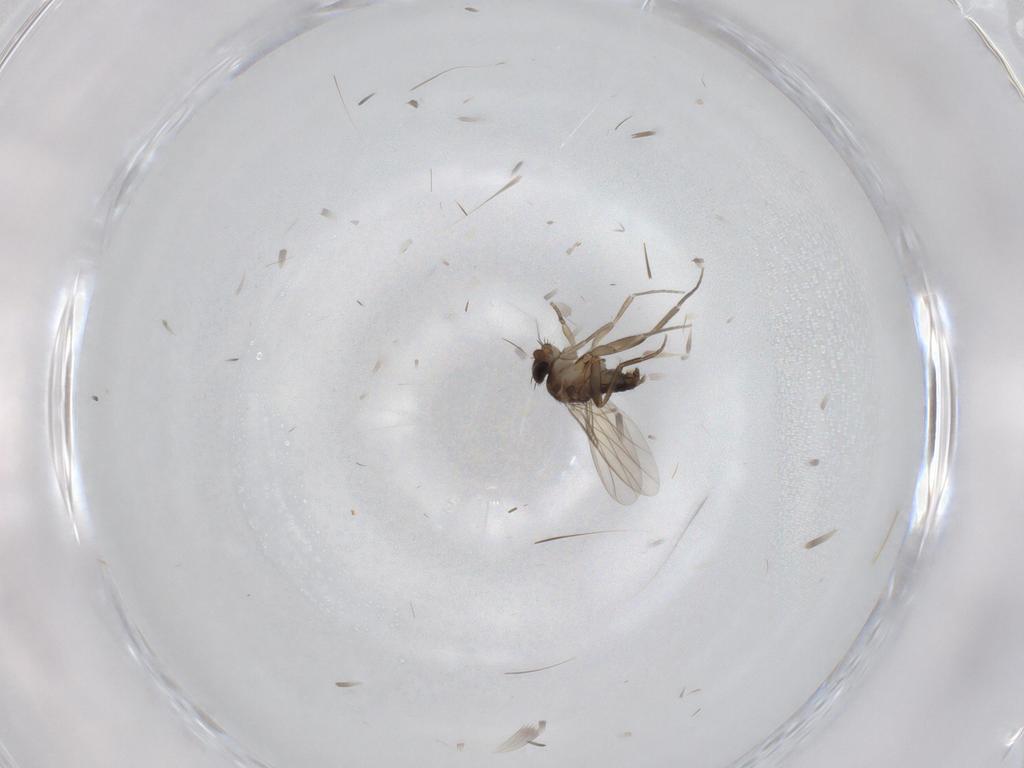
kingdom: Animalia
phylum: Arthropoda
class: Insecta
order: Diptera
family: Phoridae
